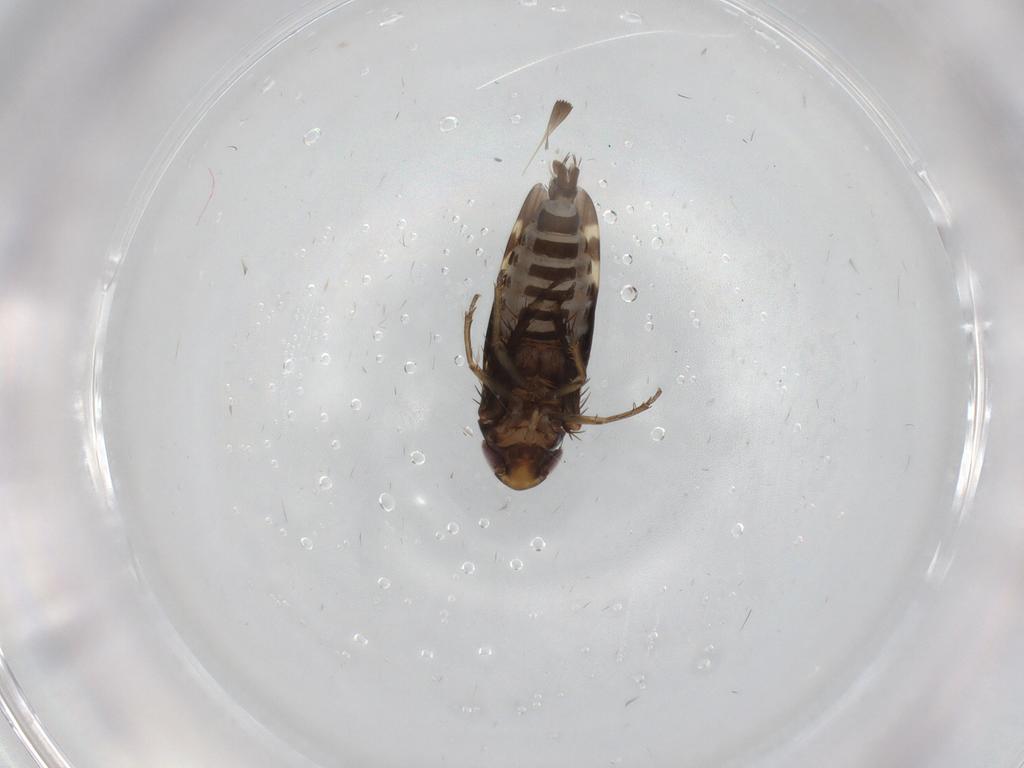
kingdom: Animalia
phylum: Arthropoda
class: Insecta
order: Hemiptera
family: Cicadellidae
